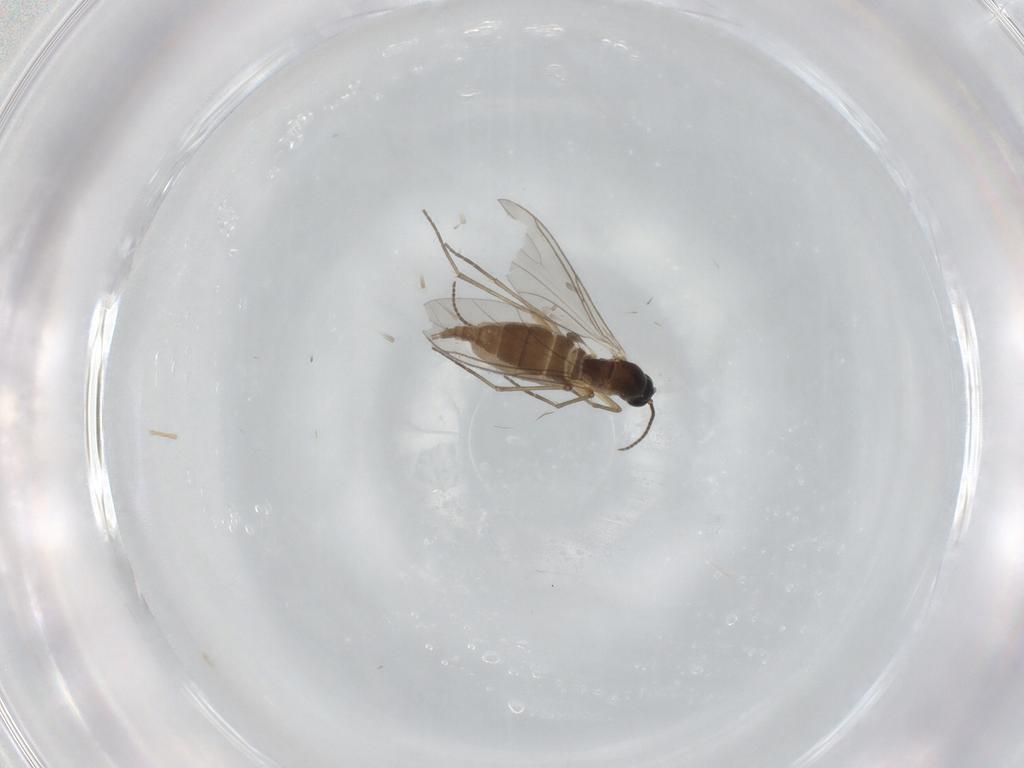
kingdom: Animalia
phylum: Arthropoda
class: Insecta
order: Diptera
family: Sciaridae
